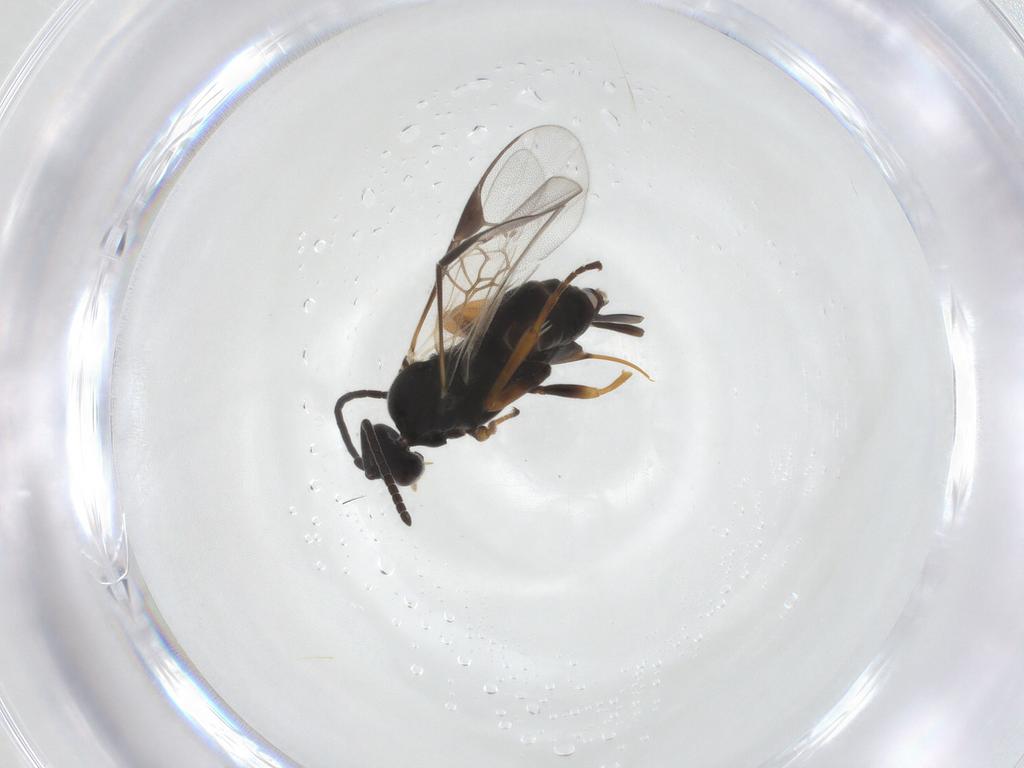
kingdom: Animalia
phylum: Arthropoda
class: Insecta
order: Hymenoptera
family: Braconidae
